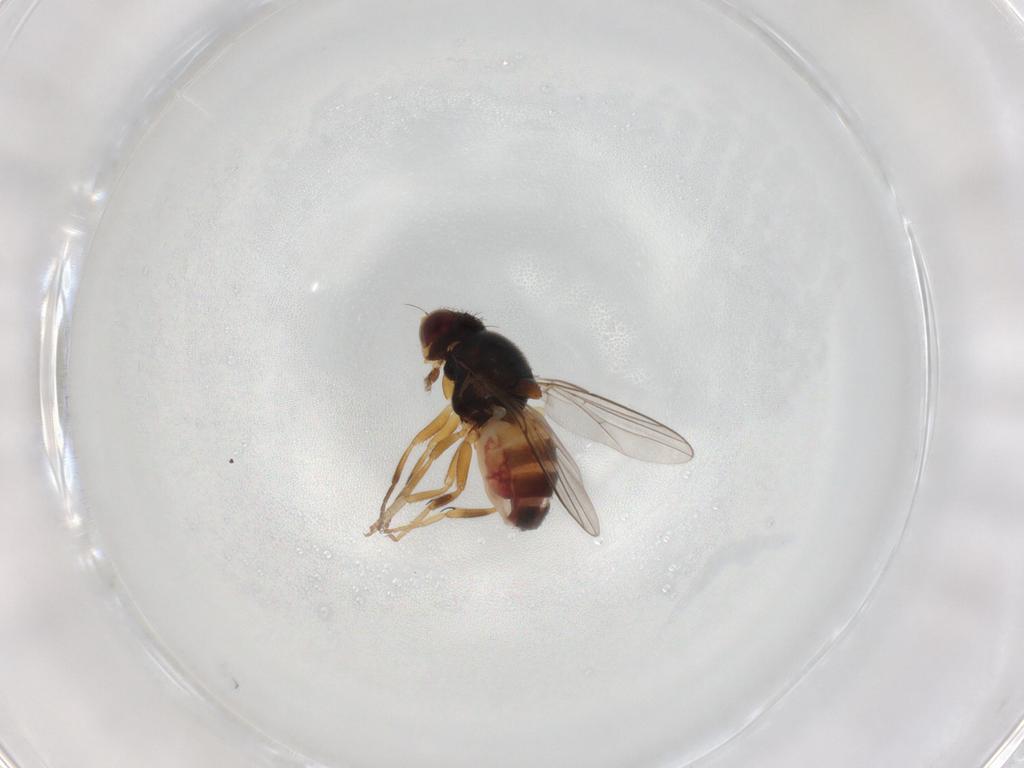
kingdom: Animalia
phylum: Arthropoda
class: Insecta
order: Diptera
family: Chloropidae
